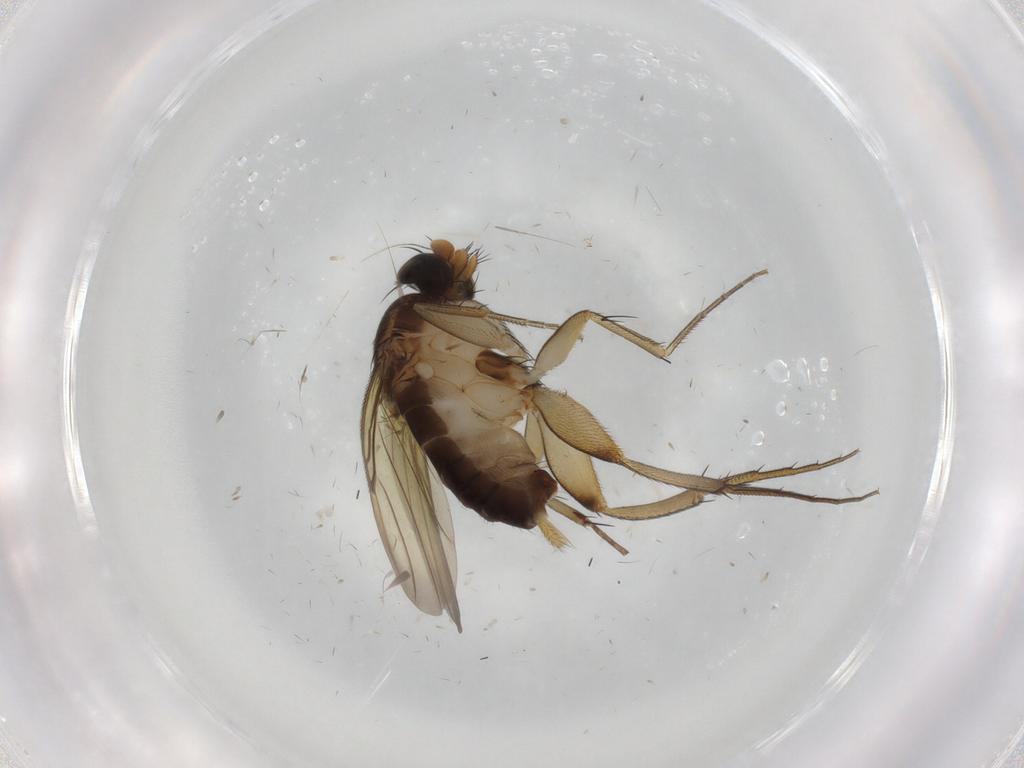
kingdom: Animalia
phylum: Arthropoda
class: Insecta
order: Diptera
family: Phoridae
